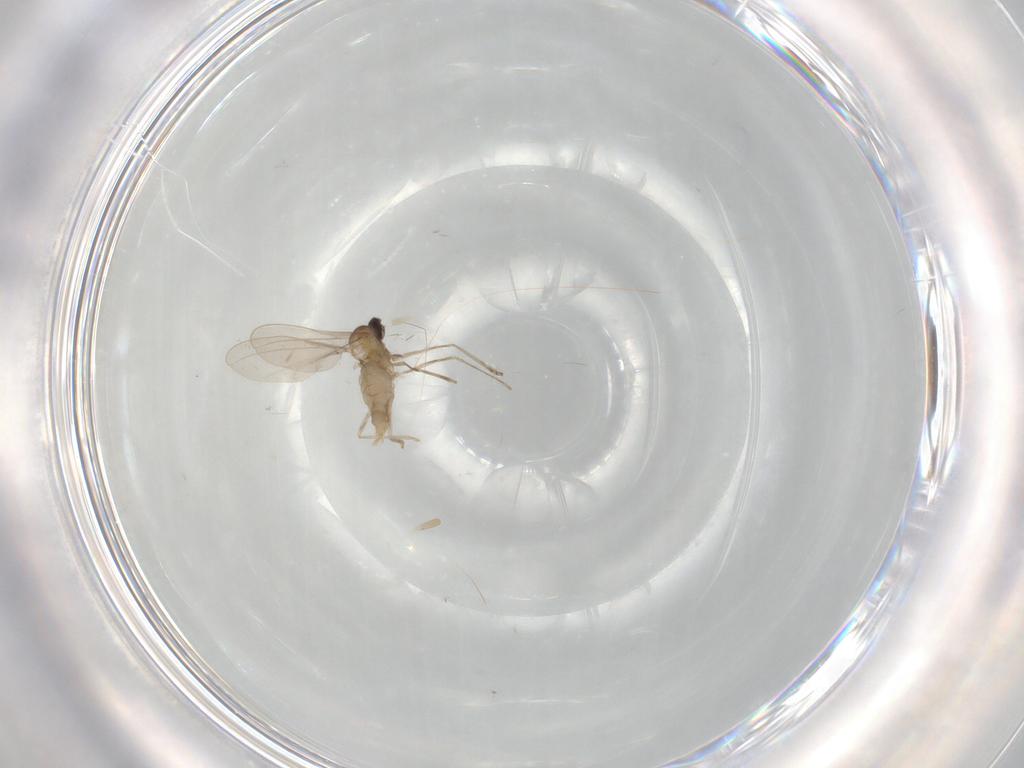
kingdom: Animalia
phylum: Arthropoda
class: Insecta
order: Diptera
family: Cecidomyiidae
